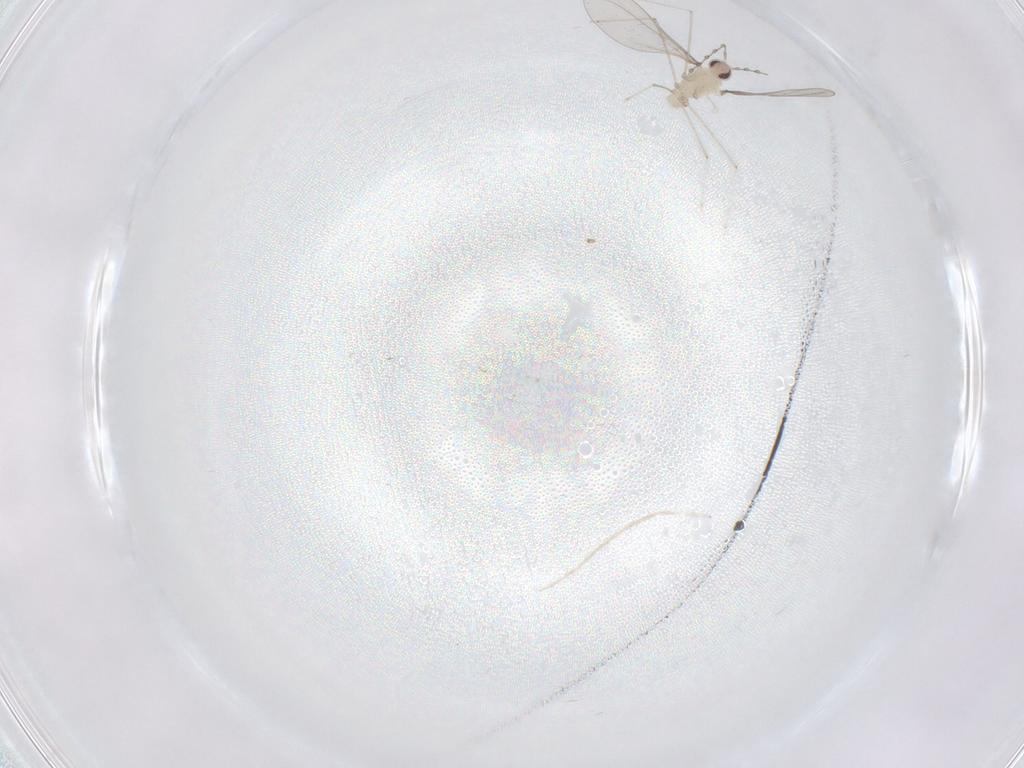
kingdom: Animalia
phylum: Arthropoda
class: Insecta
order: Diptera
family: Cecidomyiidae
